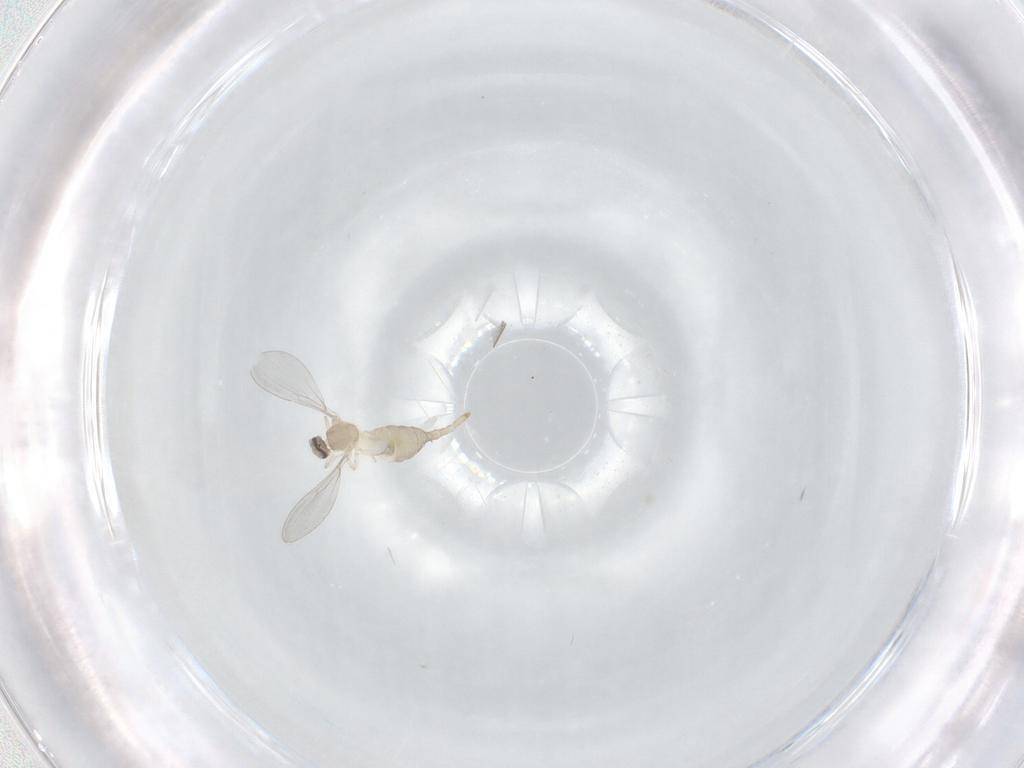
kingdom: Animalia
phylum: Arthropoda
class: Insecta
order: Diptera
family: Cecidomyiidae
